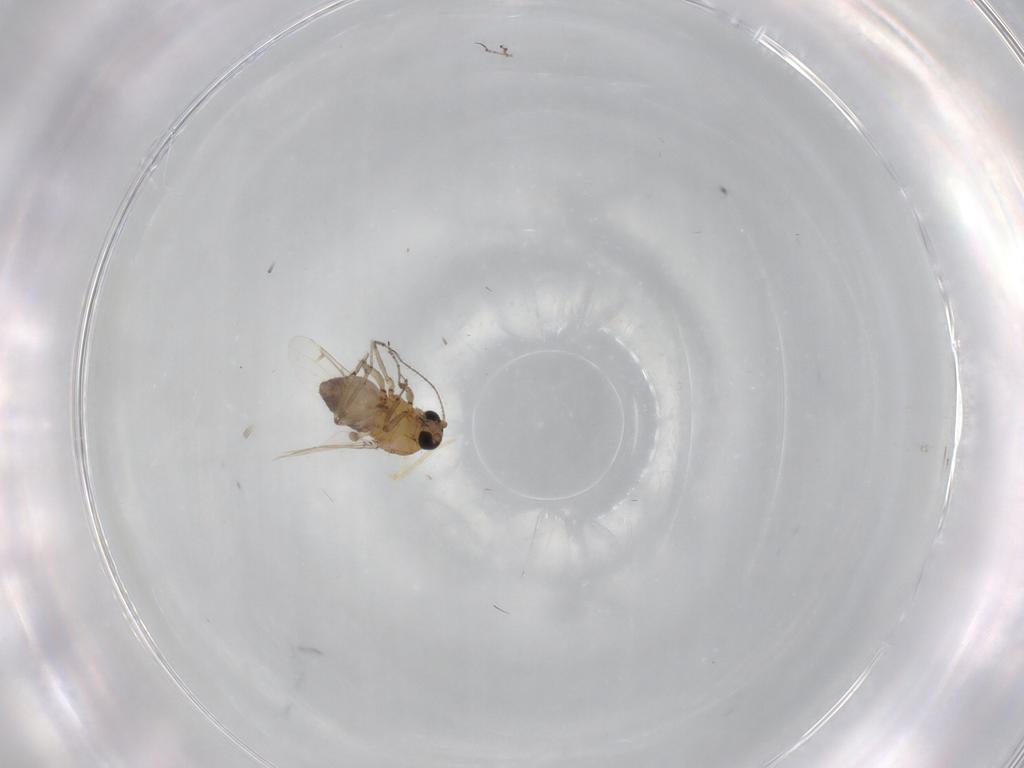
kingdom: Animalia
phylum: Arthropoda
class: Insecta
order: Diptera
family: Ceratopogonidae
